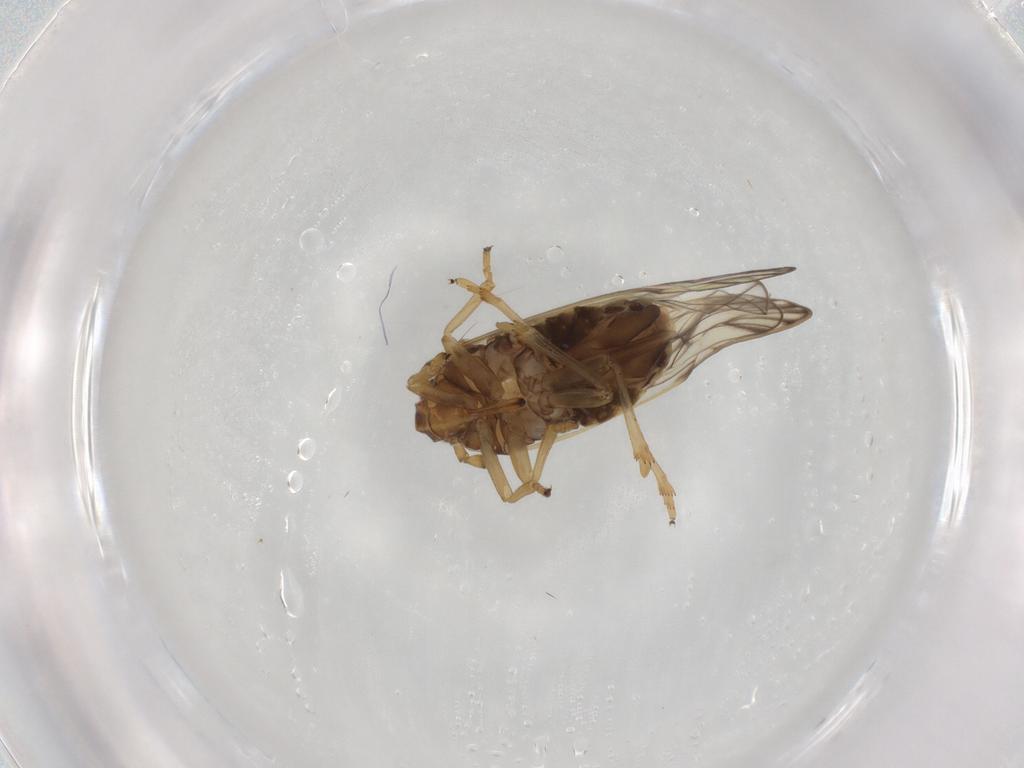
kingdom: Animalia
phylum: Arthropoda
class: Insecta
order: Hemiptera
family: Delphacidae
